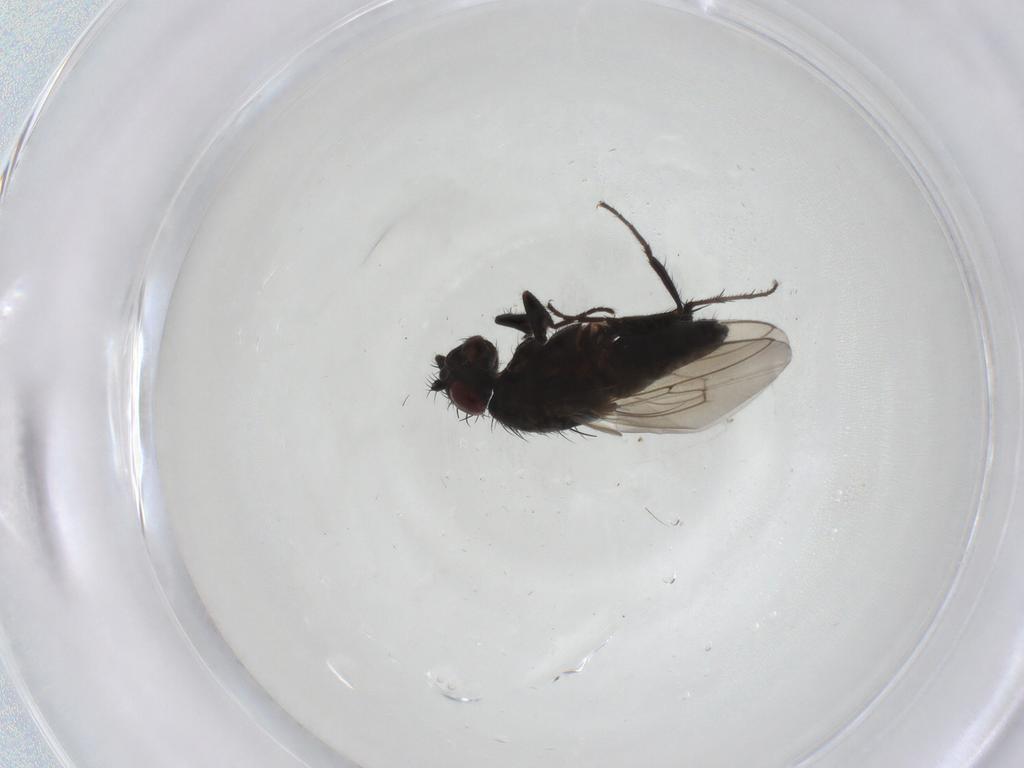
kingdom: Animalia
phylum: Arthropoda
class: Insecta
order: Diptera
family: Sphaeroceridae
